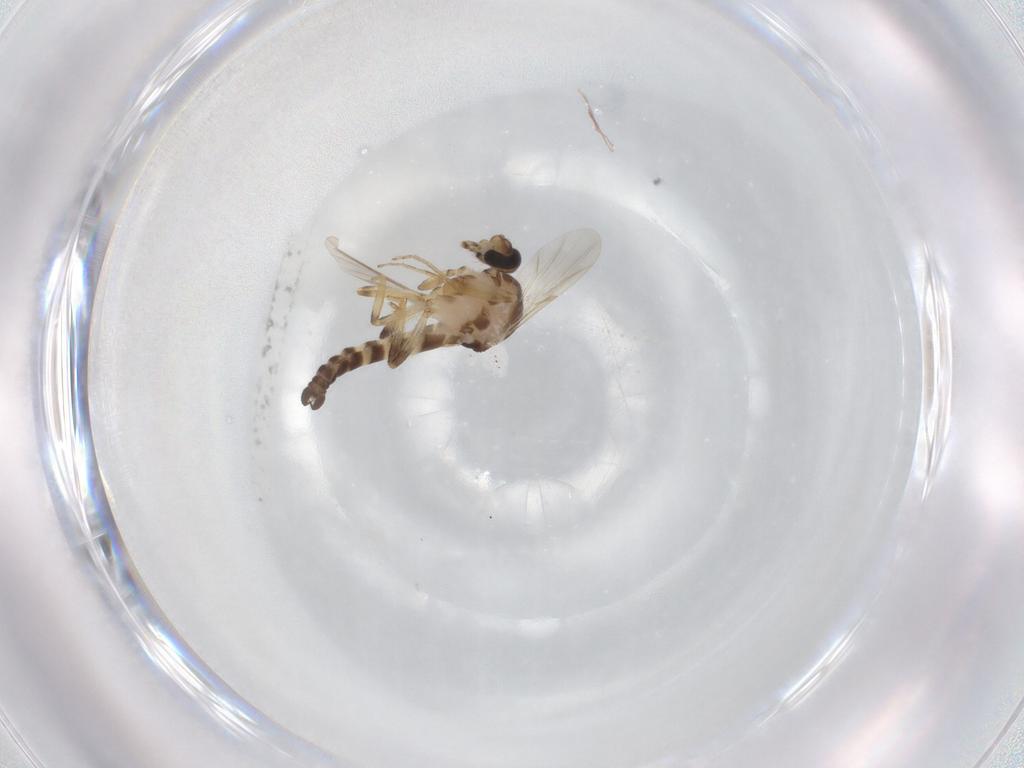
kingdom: Animalia
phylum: Arthropoda
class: Insecta
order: Diptera
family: Ceratopogonidae
